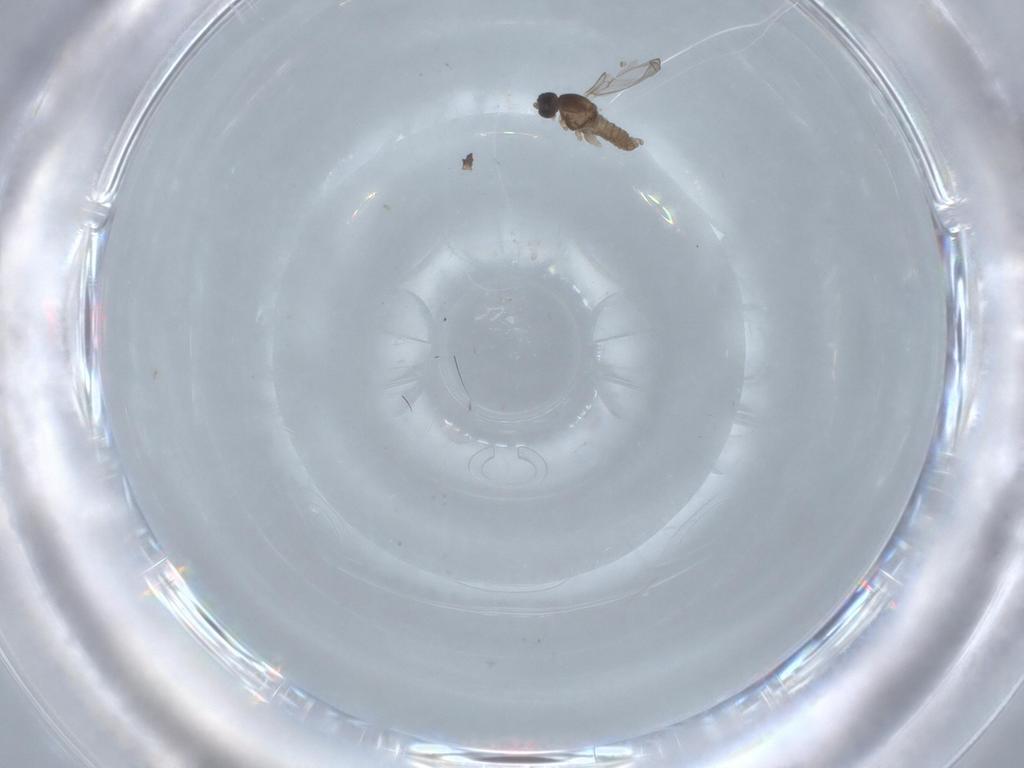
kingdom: Animalia
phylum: Arthropoda
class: Insecta
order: Diptera
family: Cecidomyiidae
